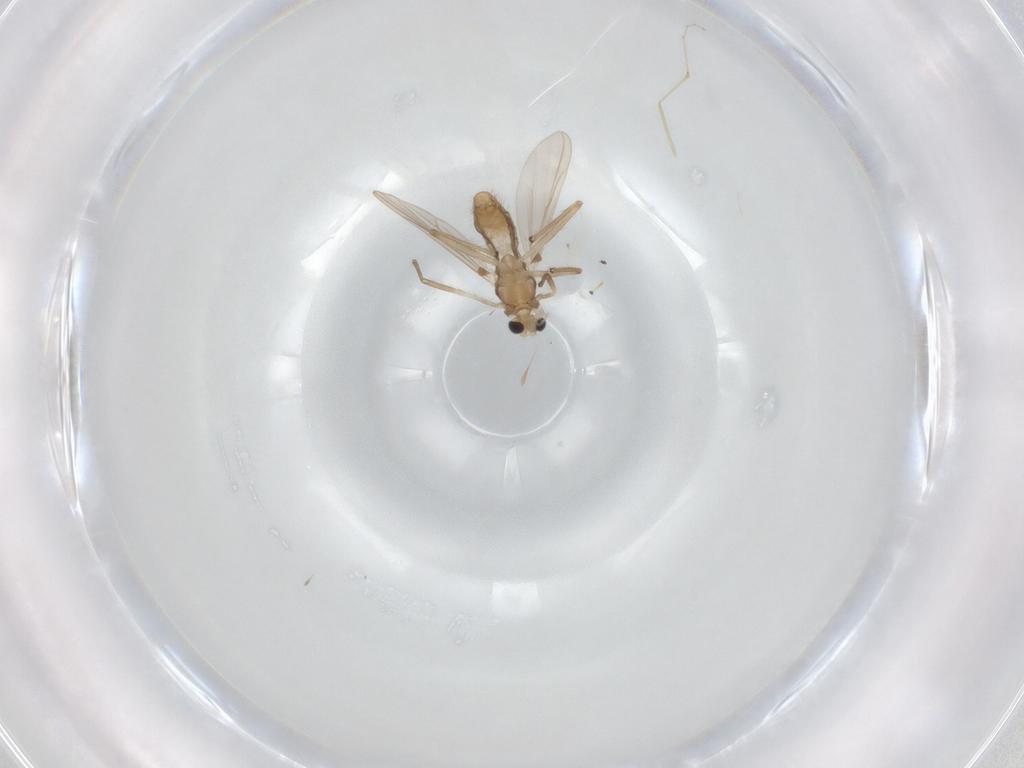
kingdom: Animalia
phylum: Arthropoda
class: Insecta
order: Diptera
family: Chironomidae
